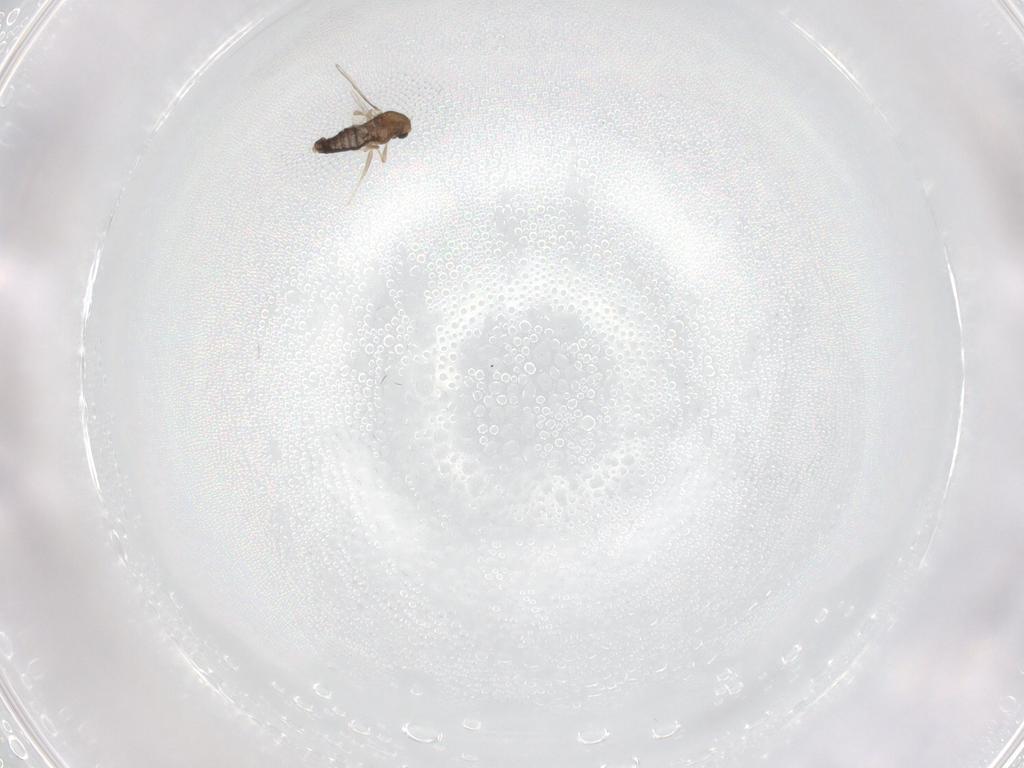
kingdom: Animalia
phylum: Arthropoda
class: Insecta
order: Diptera
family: Chironomidae
